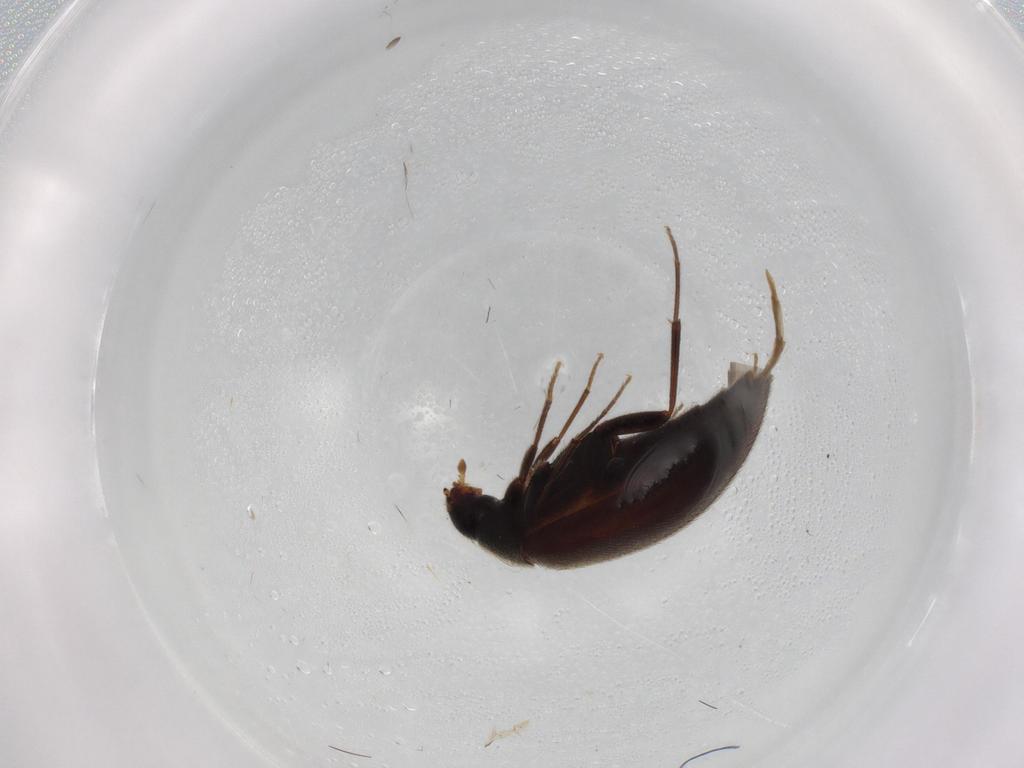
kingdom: Animalia
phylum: Arthropoda
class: Insecta
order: Coleoptera
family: Melandryidae
